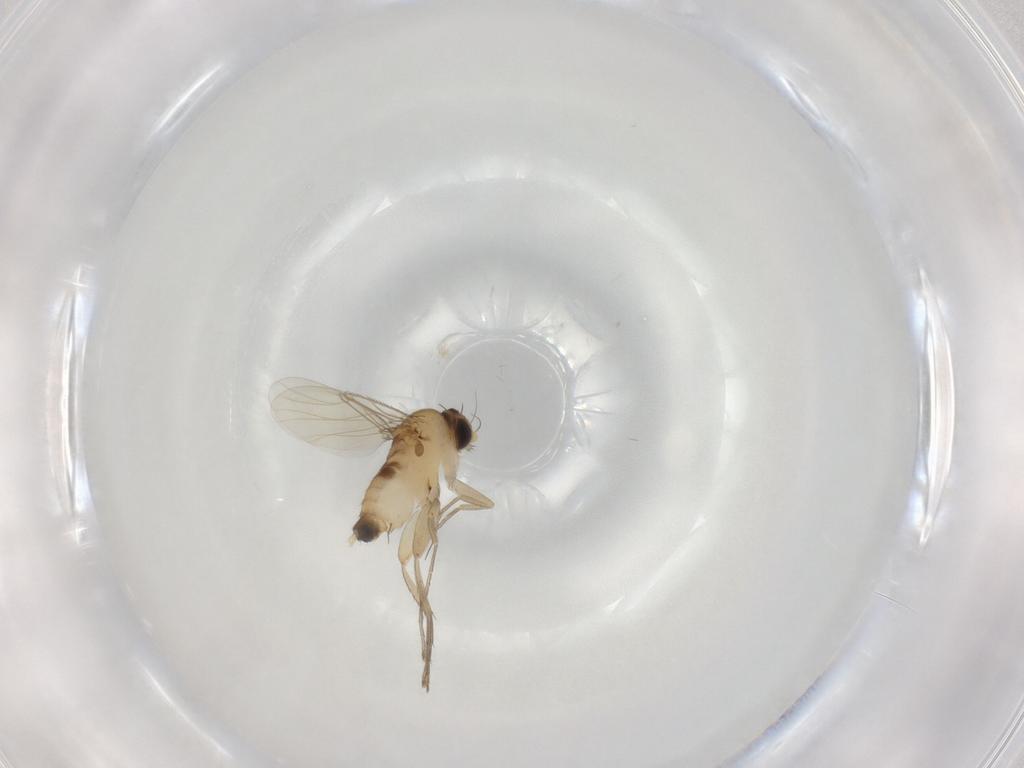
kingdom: Animalia
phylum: Arthropoda
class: Insecta
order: Diptera
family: Phoridae
